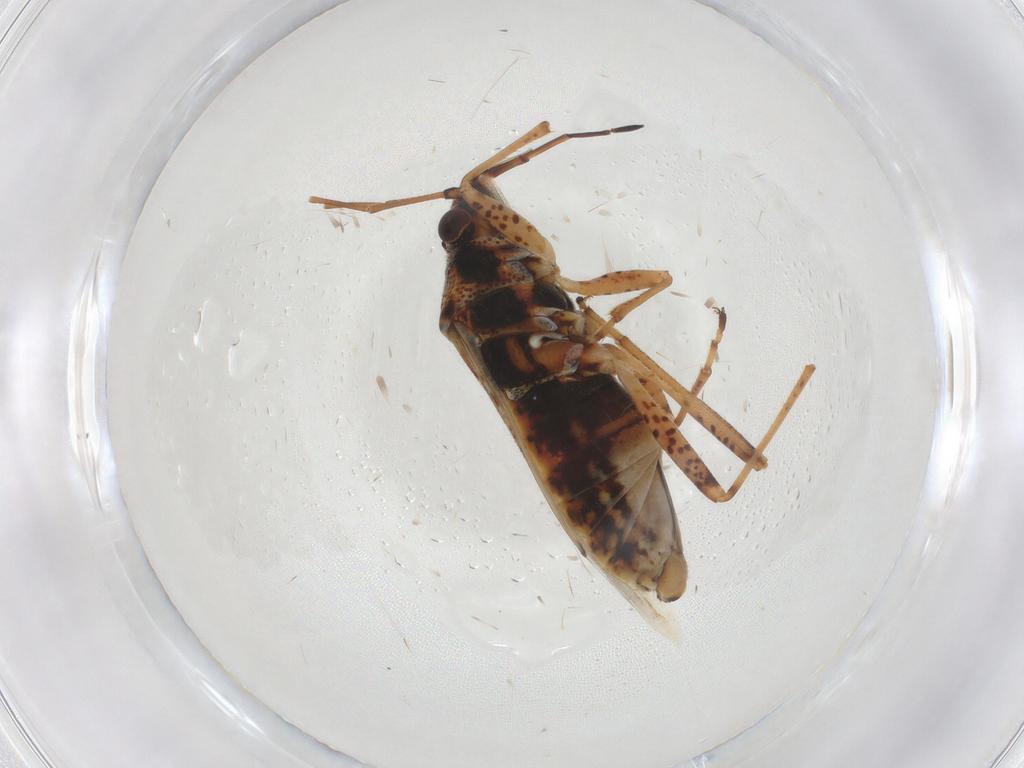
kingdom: Animalia
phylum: Arthropoda
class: Insecta
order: Hemiptera
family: Lygaeidae
